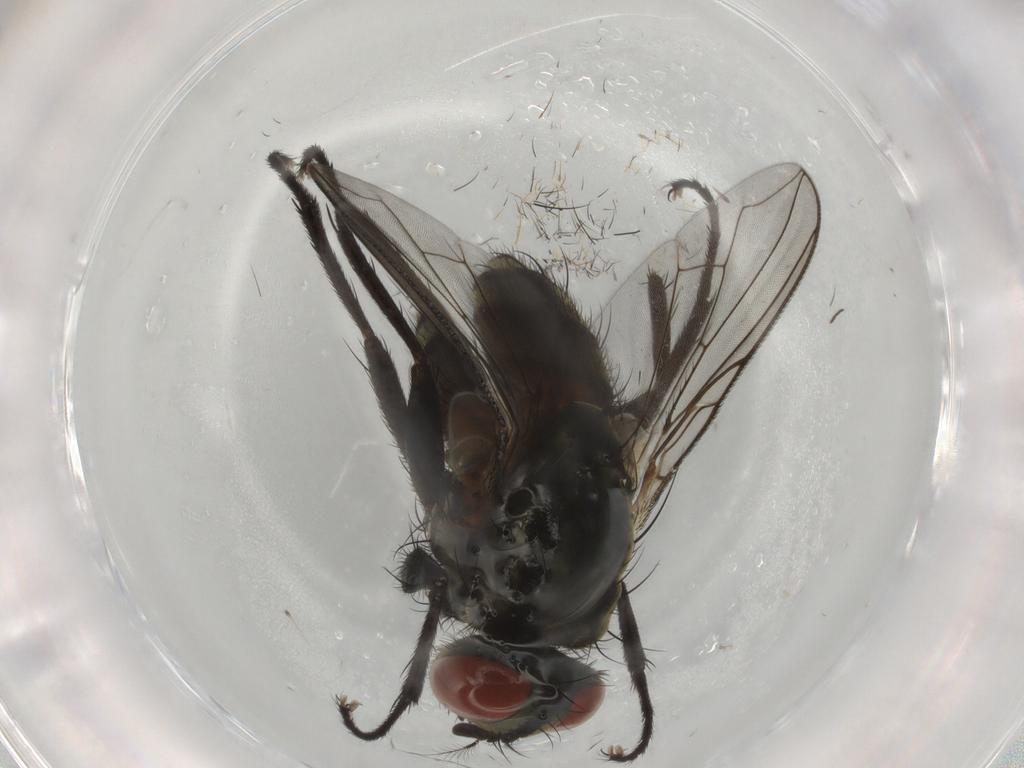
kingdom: Animalia
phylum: Arthropoda
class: Insecta
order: Diptera
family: Sarcophagidae
